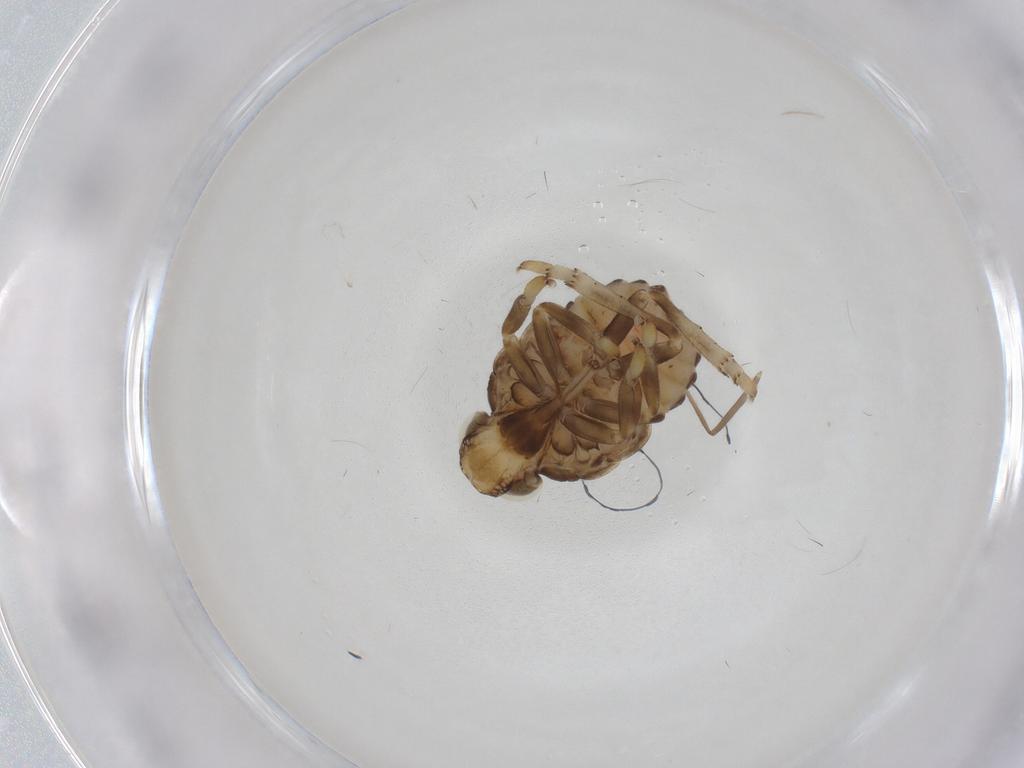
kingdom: Animalia
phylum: Arthropoda
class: Insecta
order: Hemiptera
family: Issidae
